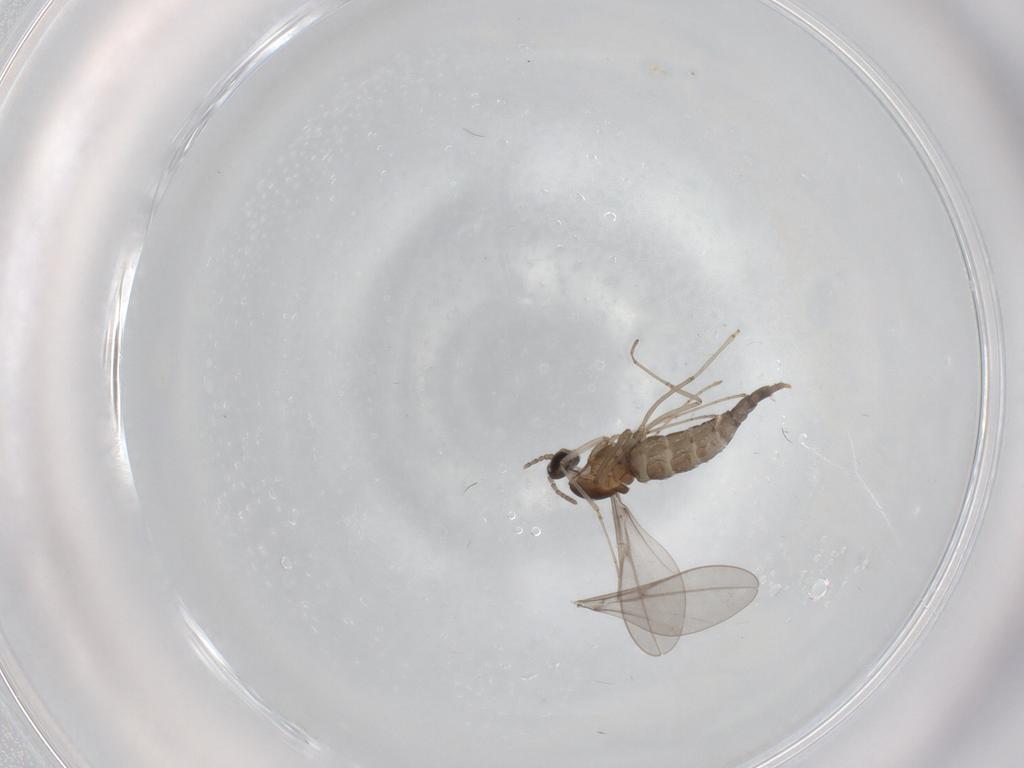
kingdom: Animalia
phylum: Arthropoda
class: Insecta
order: Diptera
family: Cecidomyiidae
